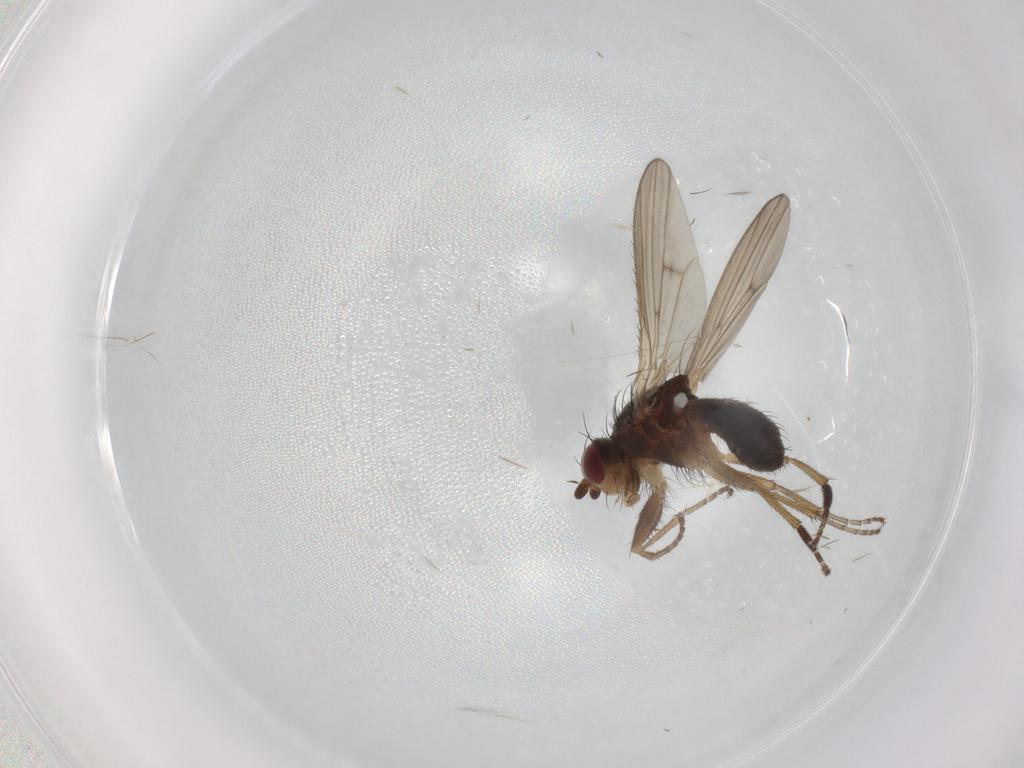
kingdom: Animalia
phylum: Arthropoda
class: Insecta
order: Diptera
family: Heleomyzidae
